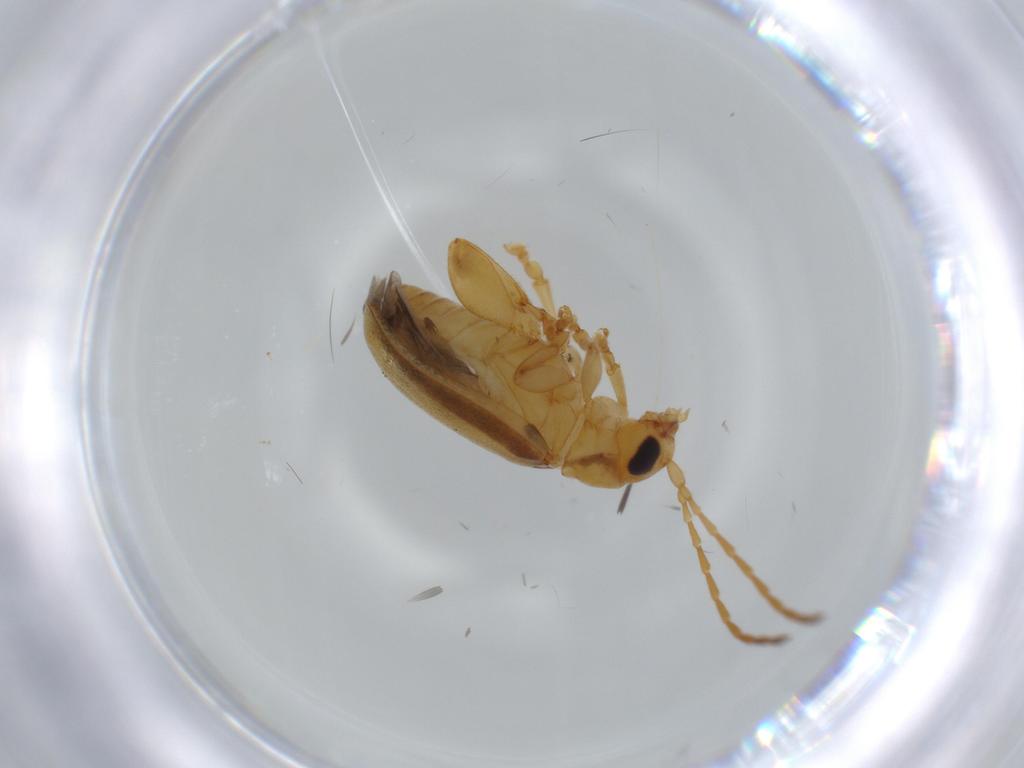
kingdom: Animalia
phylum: Arthropoda
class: Insecta
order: Coleoptera
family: Chrysomelidae
